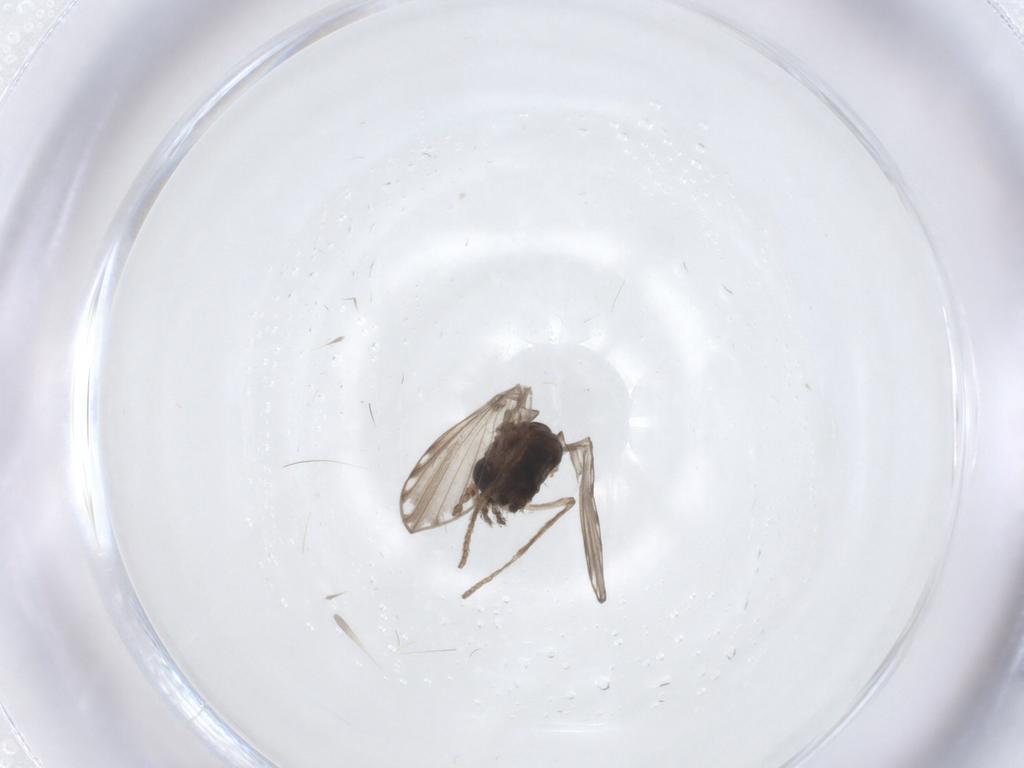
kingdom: Animalia
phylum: Arthropoda
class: Insecta
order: Diptera
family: Psychodidae
